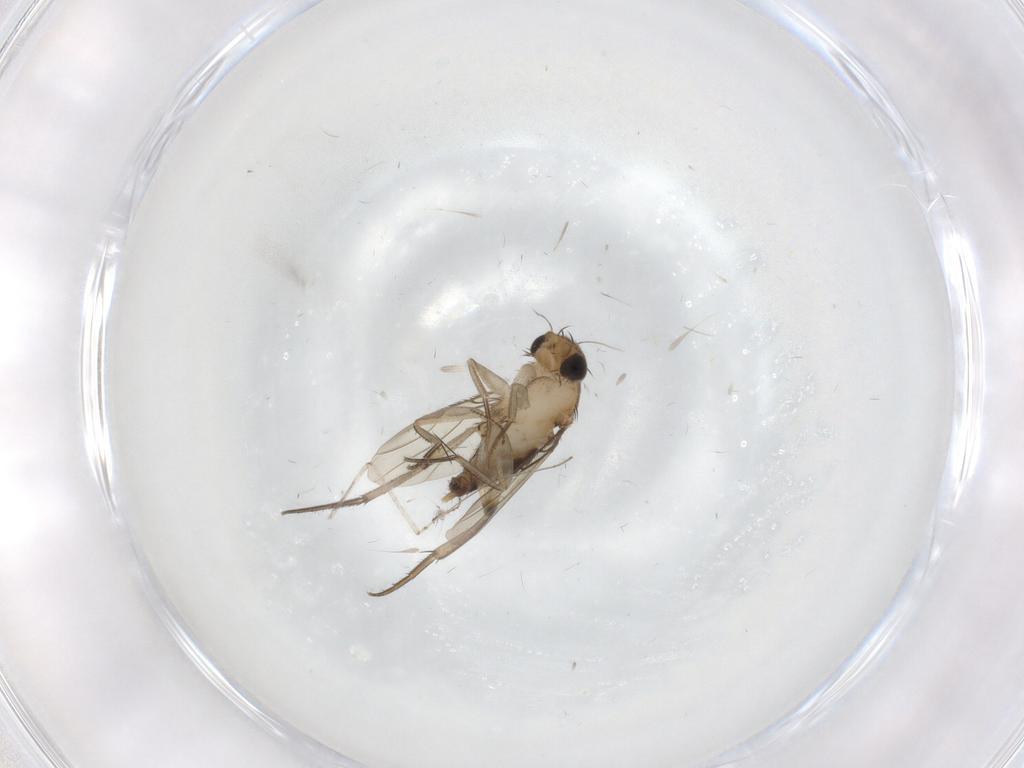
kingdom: Animalia
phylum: Arthropoda
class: Insecta
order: Diptera
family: Phoridae
